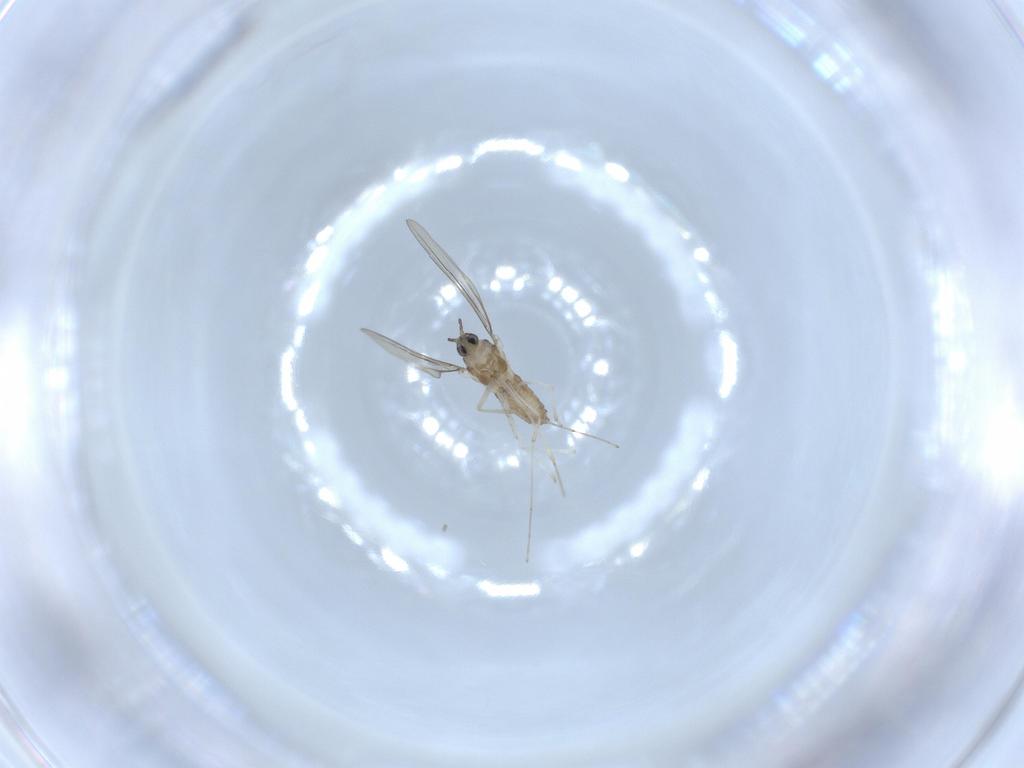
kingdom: Animalia
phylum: Arthropoda
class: Insecta
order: Diptera
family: Cecidomyiidae
